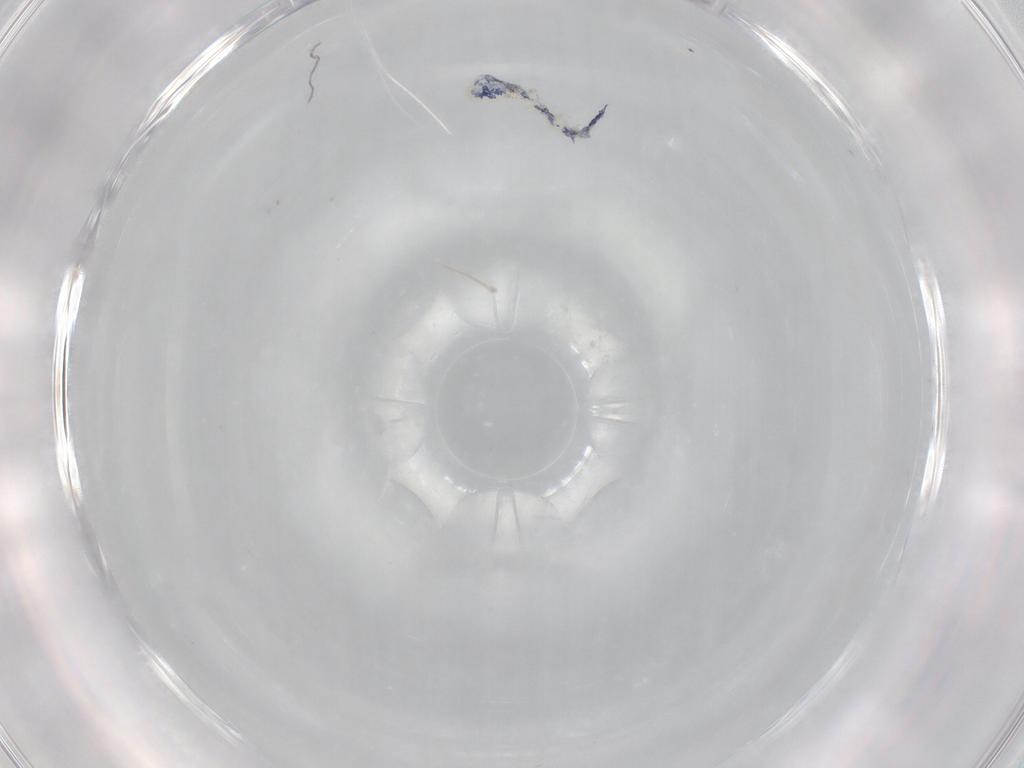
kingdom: Animalia
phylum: Arthropoda
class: Collembola
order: Entomobryomorpha
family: Entomobryidae
